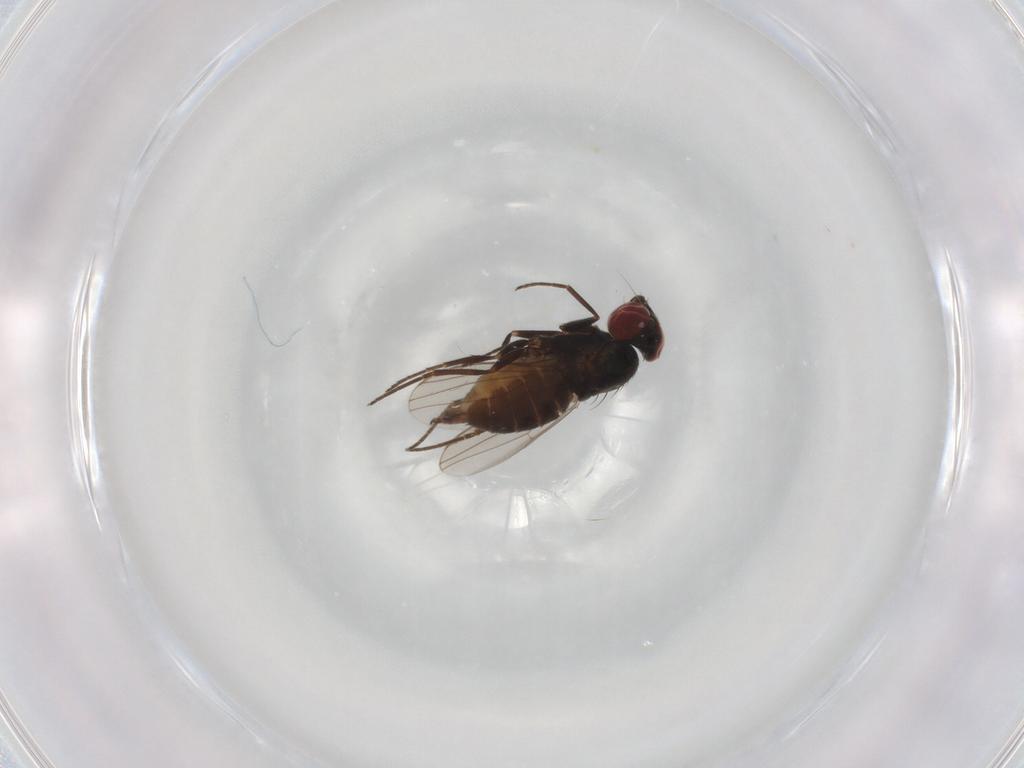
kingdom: Animalia
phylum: Arthropoda
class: Insecta
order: Diptera
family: Dolichopodidae
